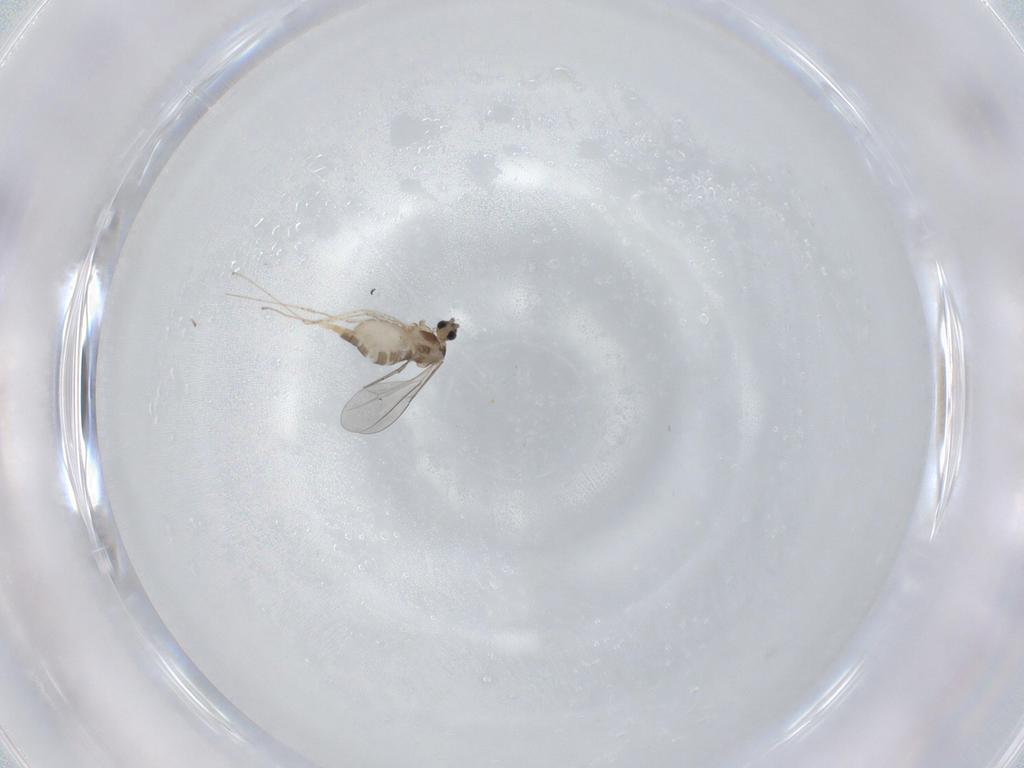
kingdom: Animalia
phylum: Arthropoda
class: Insecta
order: Diptera
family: Cecidomyiidae
